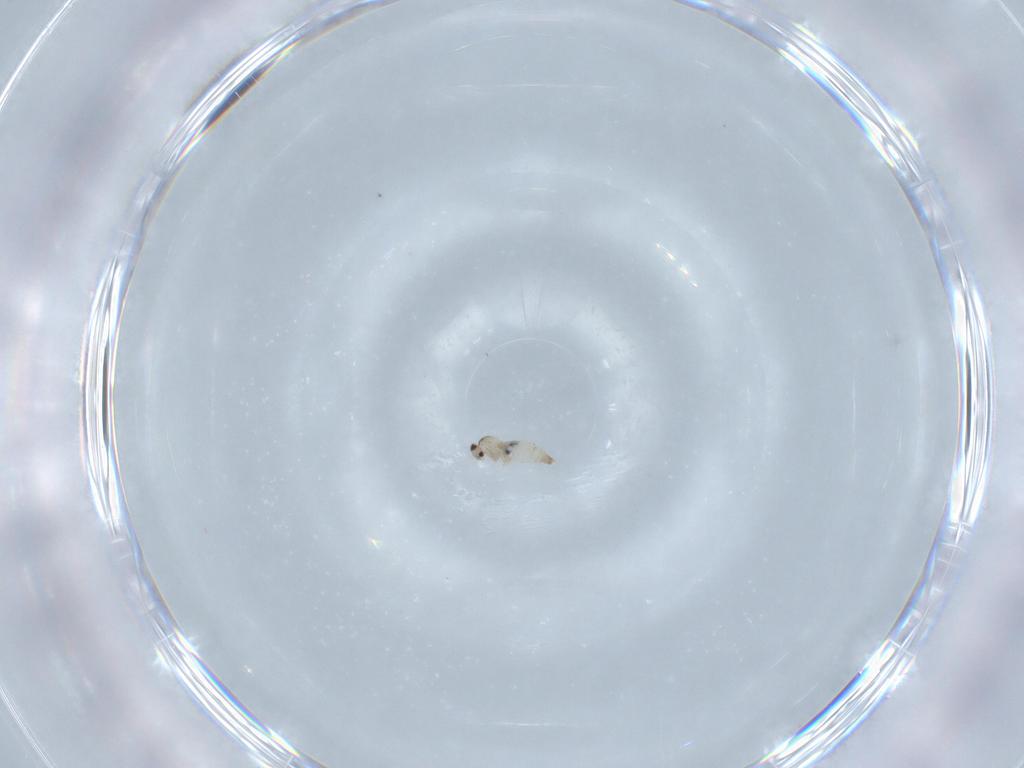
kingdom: Animalia
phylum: Arthropoda
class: Insecta
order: Diptera
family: Cecidomyiidae
